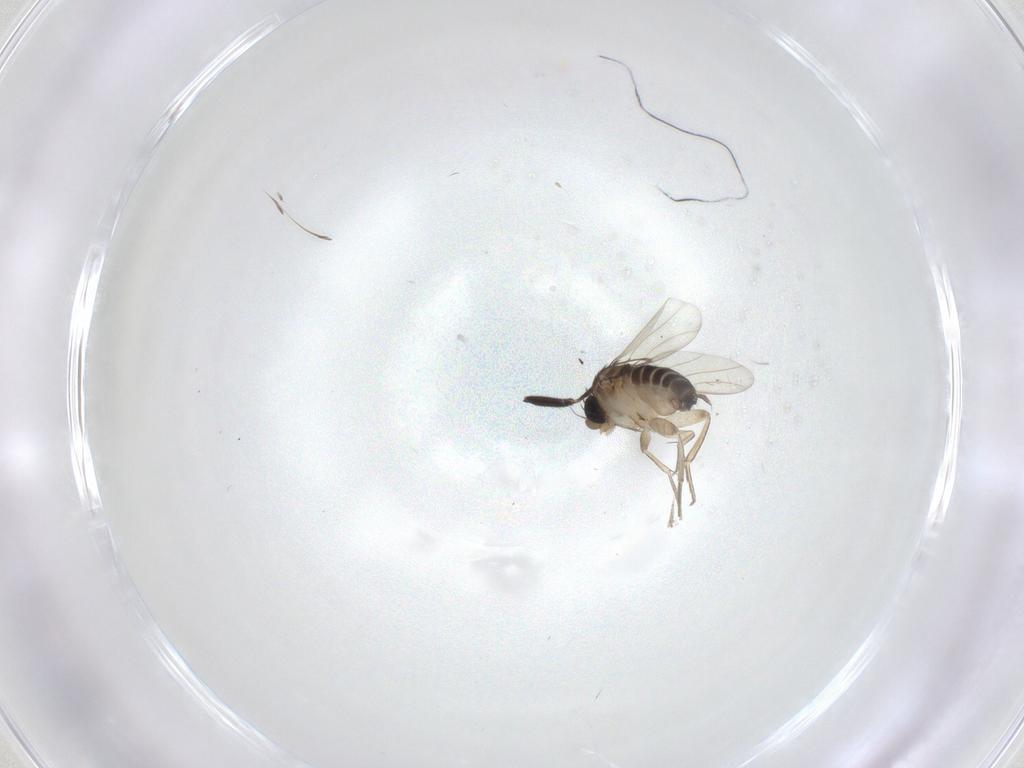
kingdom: Animalia
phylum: Arthropoda
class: Insecta
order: Diptera
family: Milichiidae
